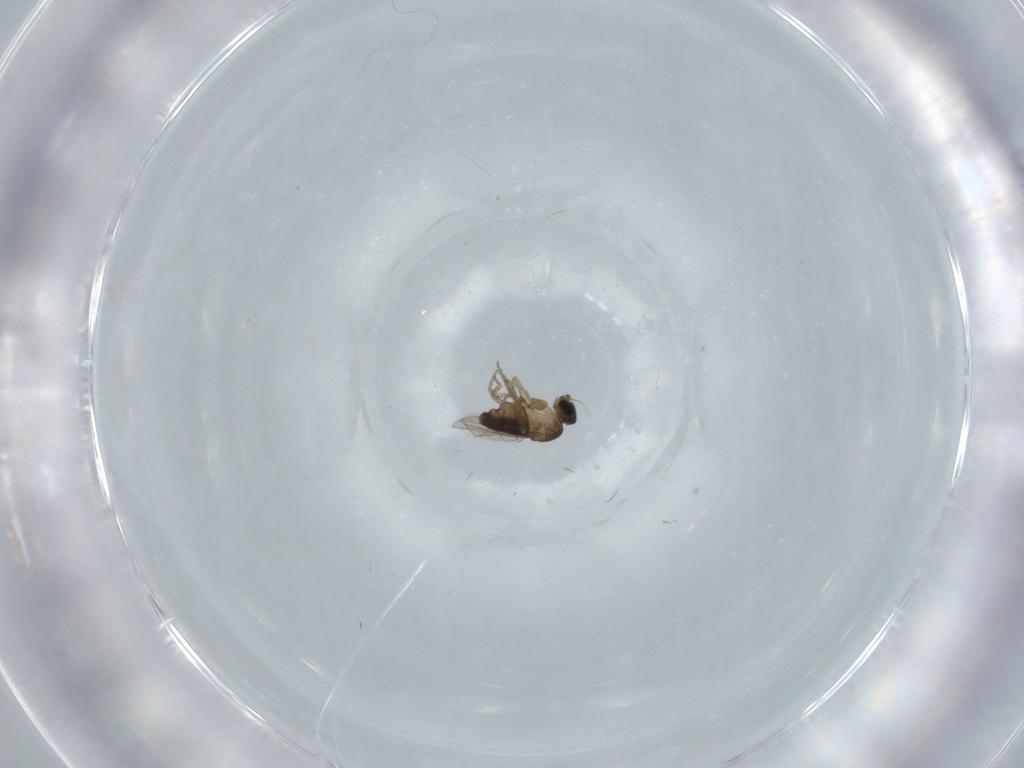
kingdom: Animalia
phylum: Arthropoda
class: Insecta
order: Diptera
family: Phoridae
